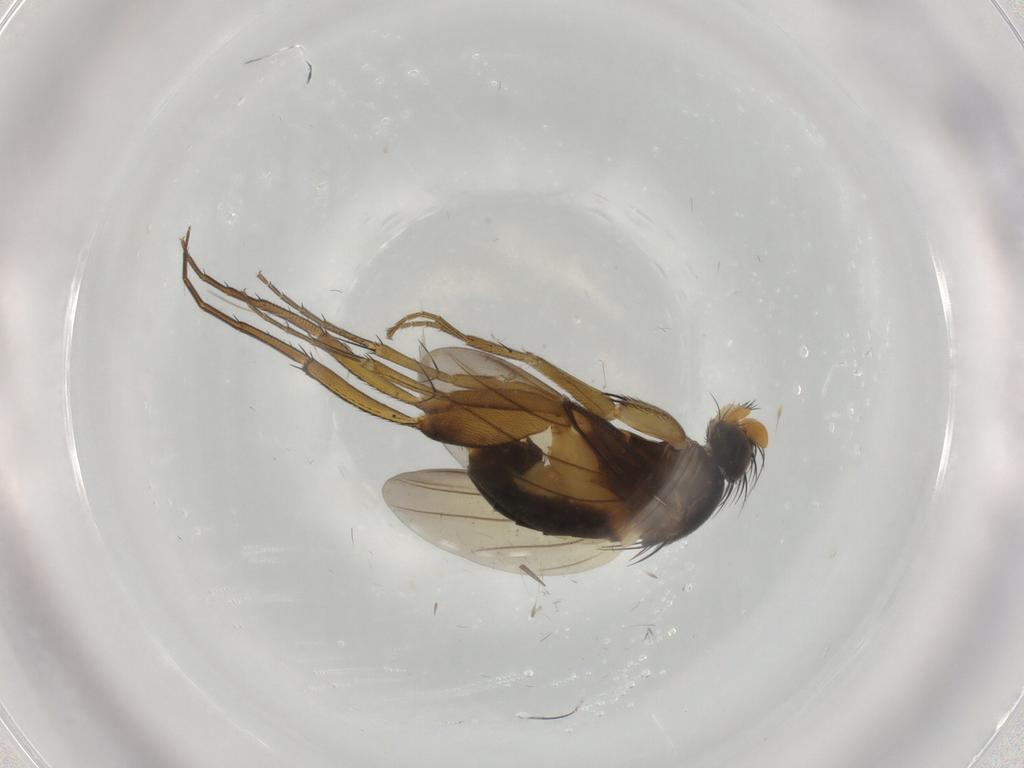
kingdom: Animalia
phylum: Arthropoda
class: Insecta
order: Diptera
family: Phoridae
